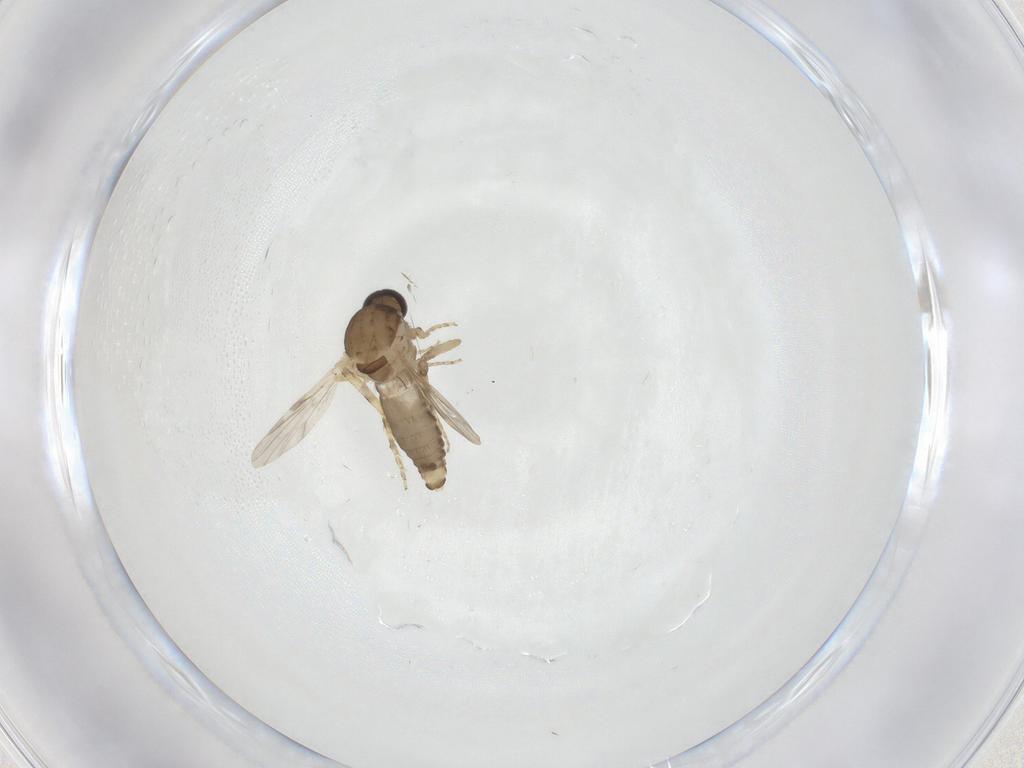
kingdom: Animalia
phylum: Arthropoda
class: Insecta
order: Diptera
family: Ceratopogonidae
